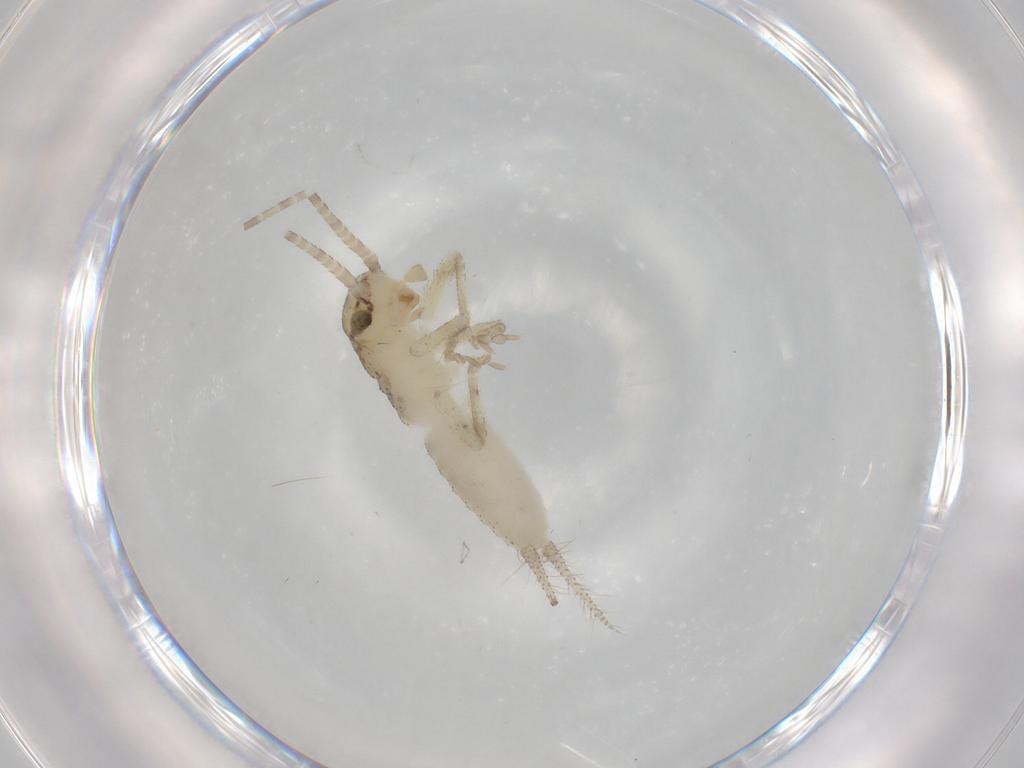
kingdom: Animalia
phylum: Arthropoda
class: Insecta
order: Orthoptera
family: Gryllidae
